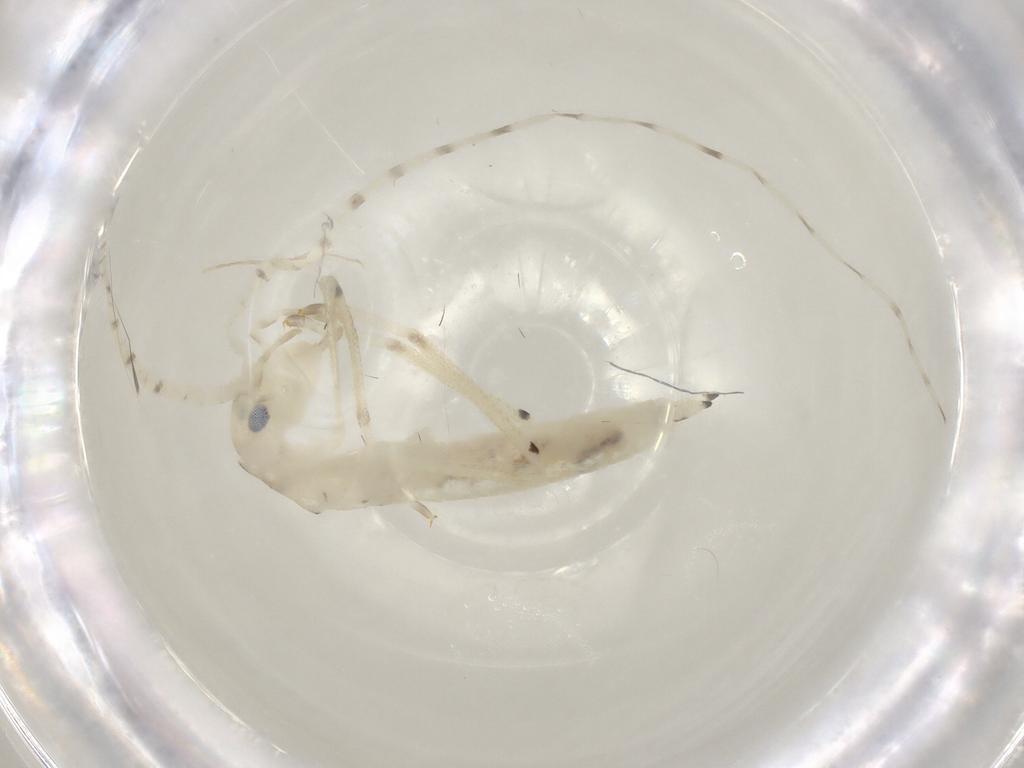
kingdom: Animalia
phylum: Arthropoda
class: Insecta
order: Orthoptera
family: Oecanthidae
